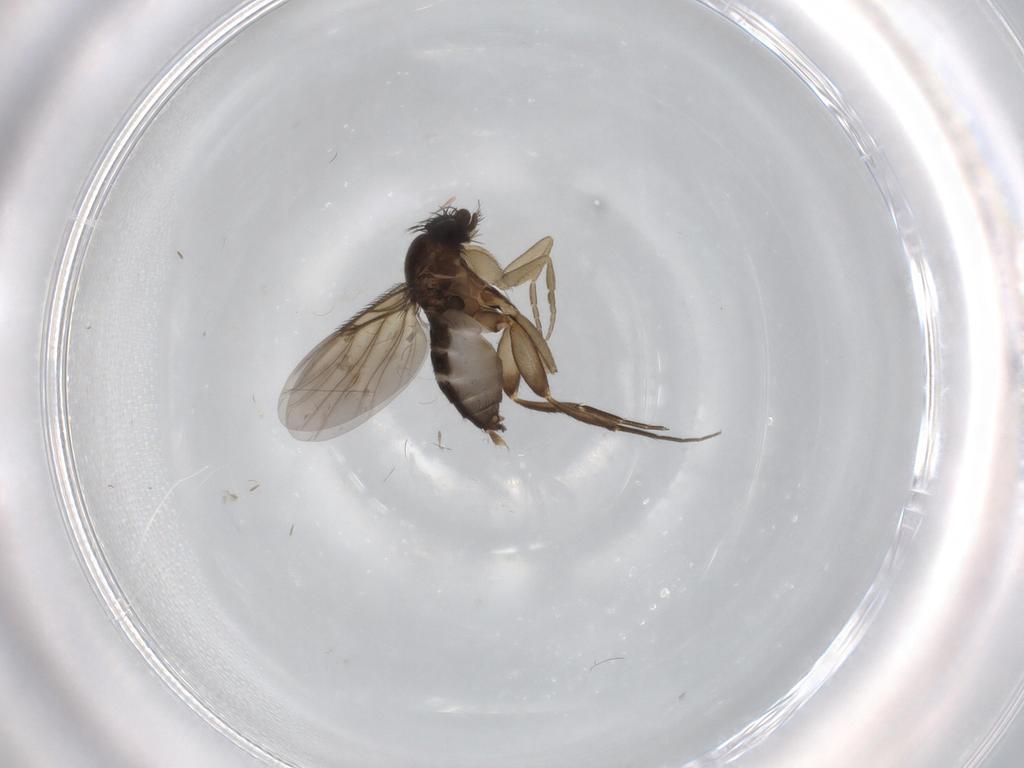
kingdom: Animalia
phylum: Arthropoda
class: Insecta
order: Diptera
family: Phoridae
